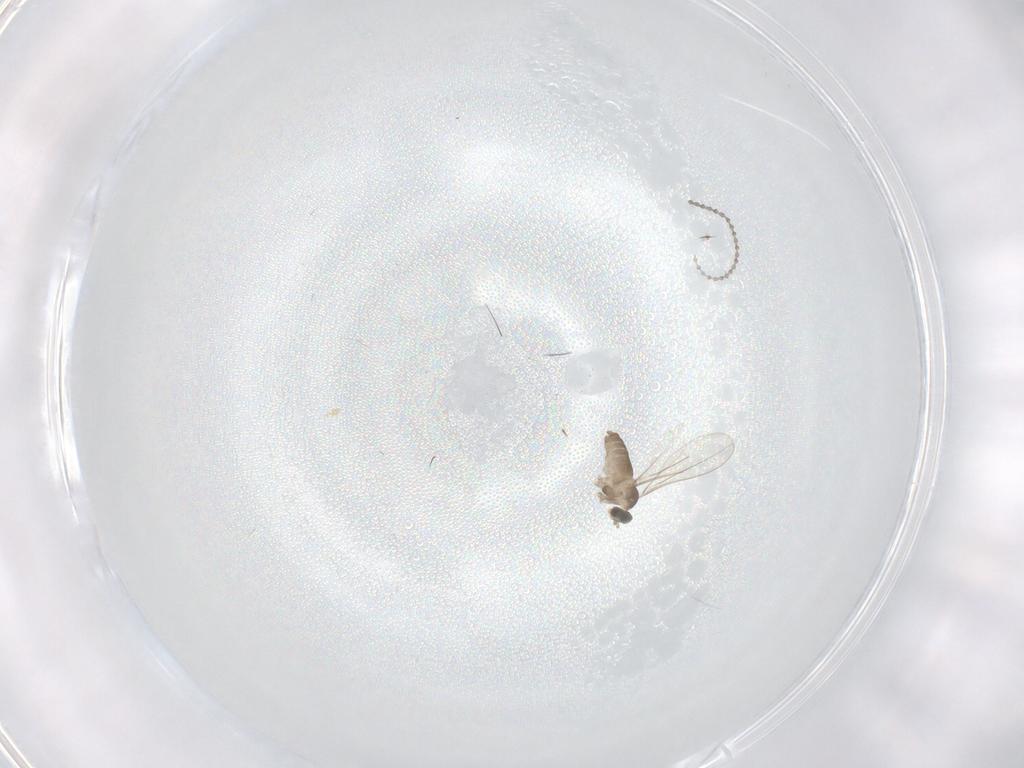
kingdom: Animalia
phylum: Arthropoda
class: Insecta
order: Diptera
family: Cecidomyiidae
